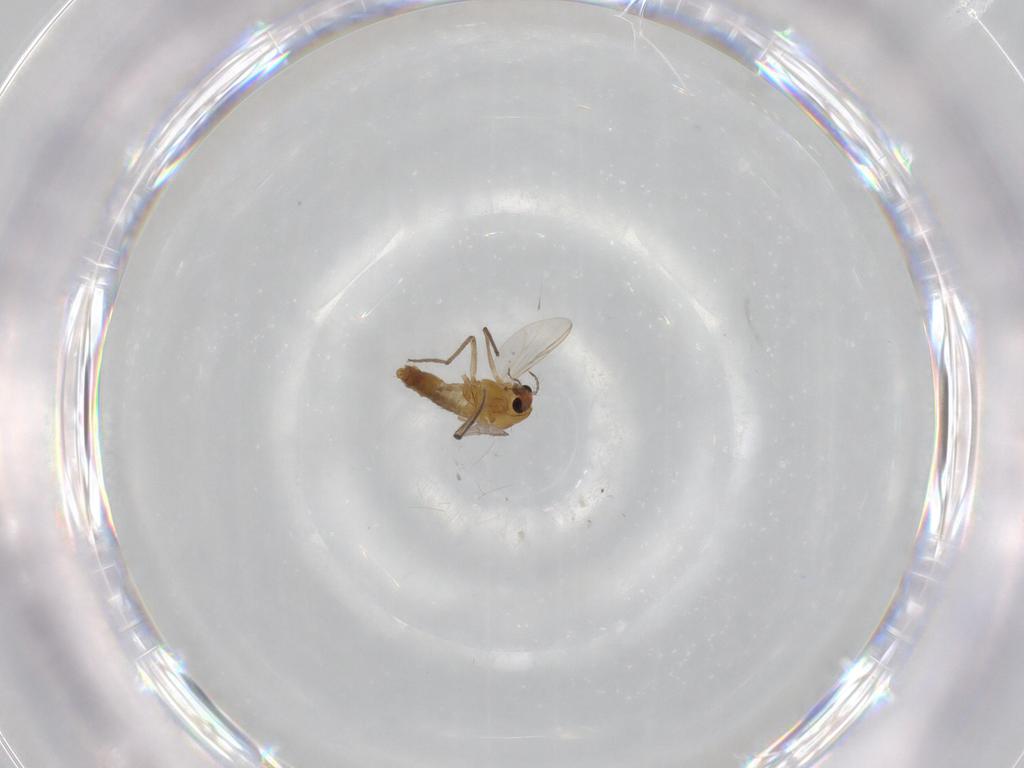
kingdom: Animalia
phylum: Arthropoda
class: Insecta
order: Diptera
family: Chironomidae
